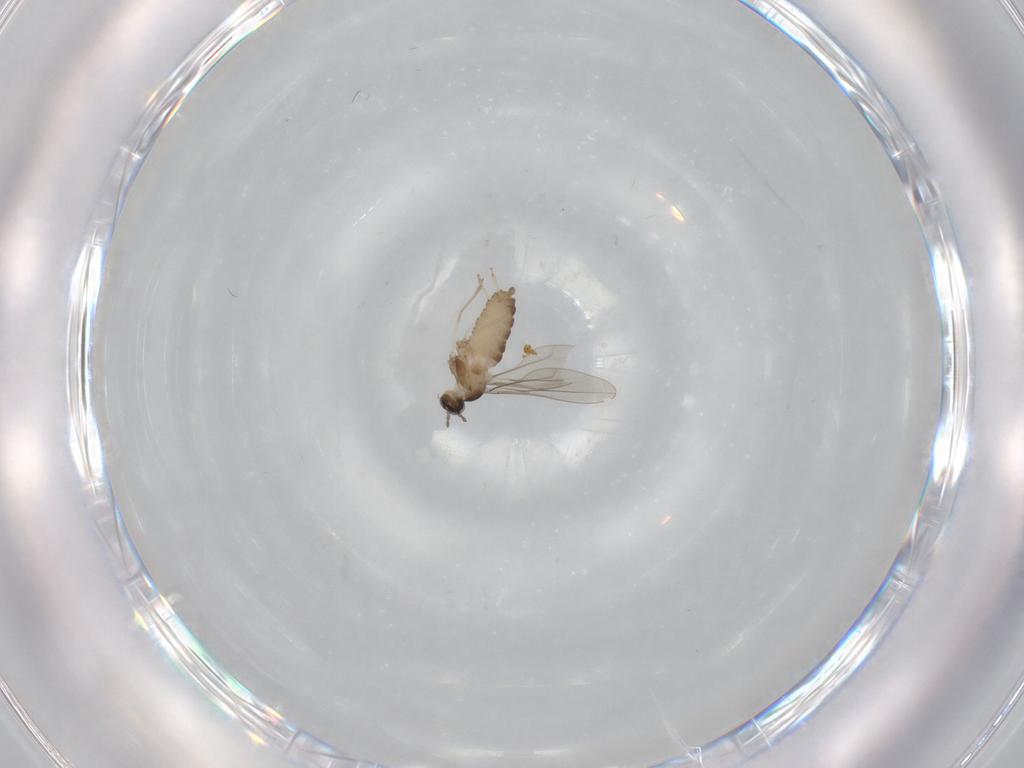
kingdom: Animalia
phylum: Arthropoda
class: Insecta
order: Diptera
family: Cecidomyiidae
